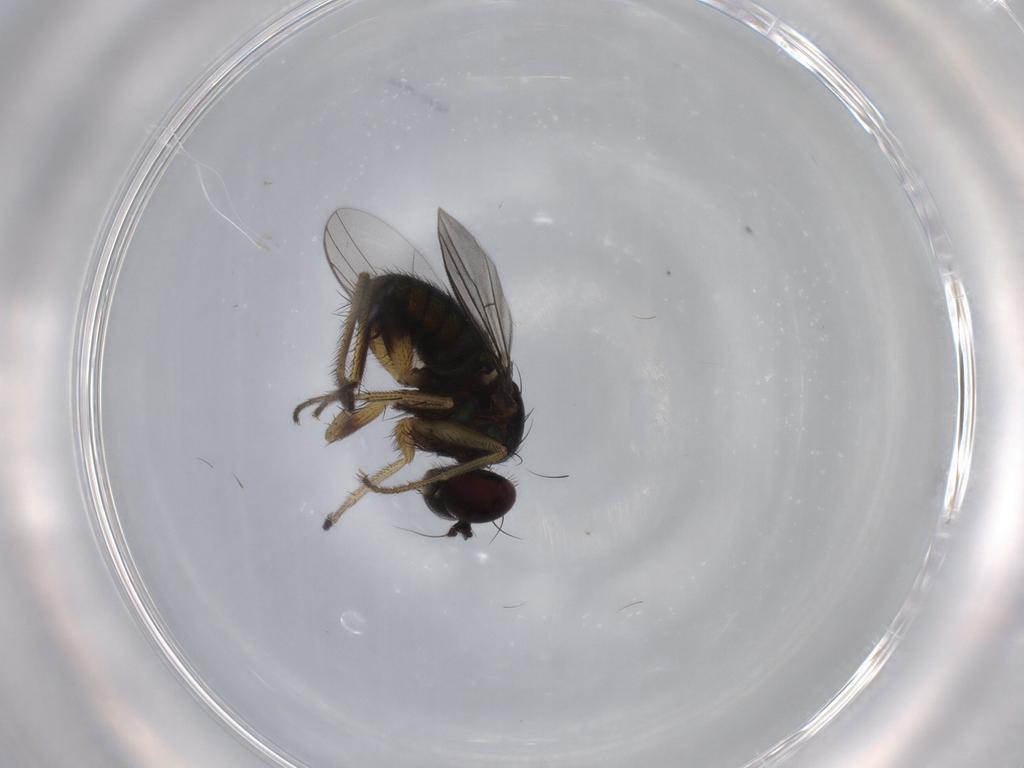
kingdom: Animalia
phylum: Arthropoda
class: Insecta
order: Diptera
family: Dolichopodidae
